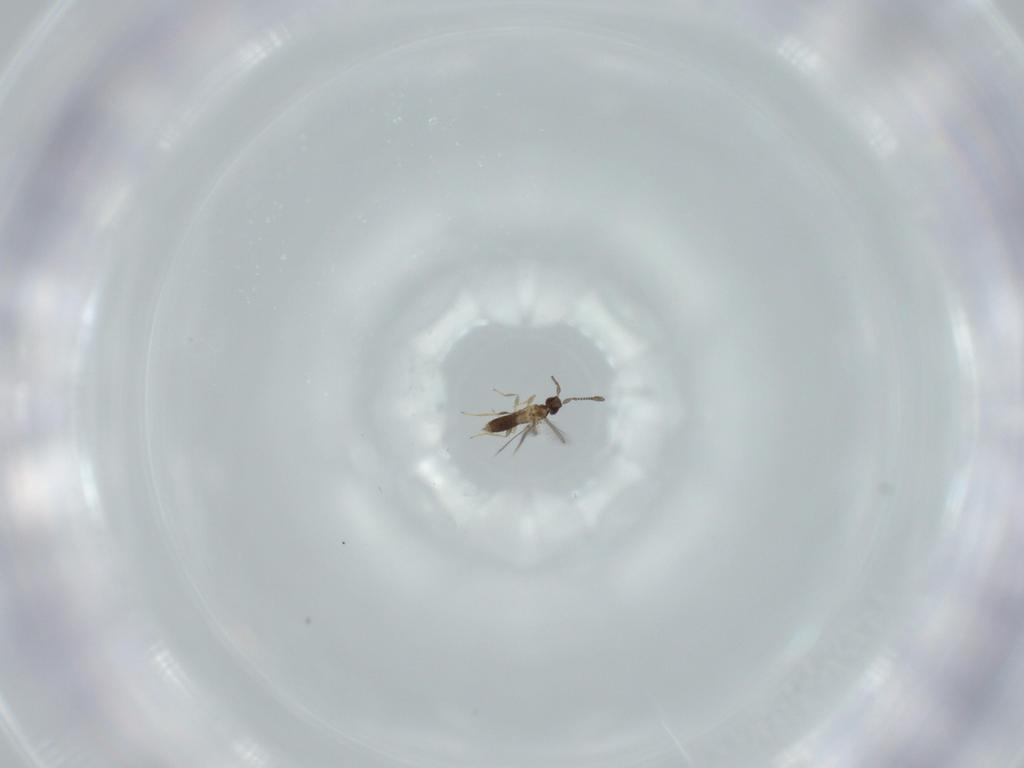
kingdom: Animalia
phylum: Arthropoda
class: Insecta
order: Hymenoptera
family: Mymaridae
